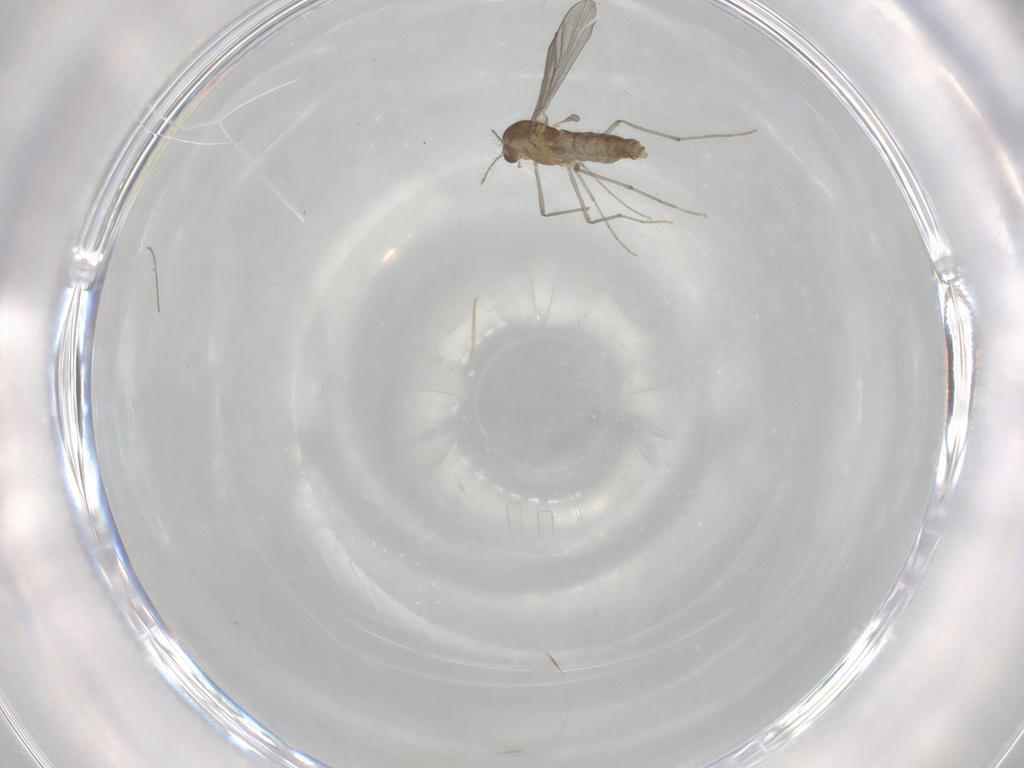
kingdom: Animalia
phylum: Arthropoda
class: Insecta
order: Diptera
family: Chironomidae
